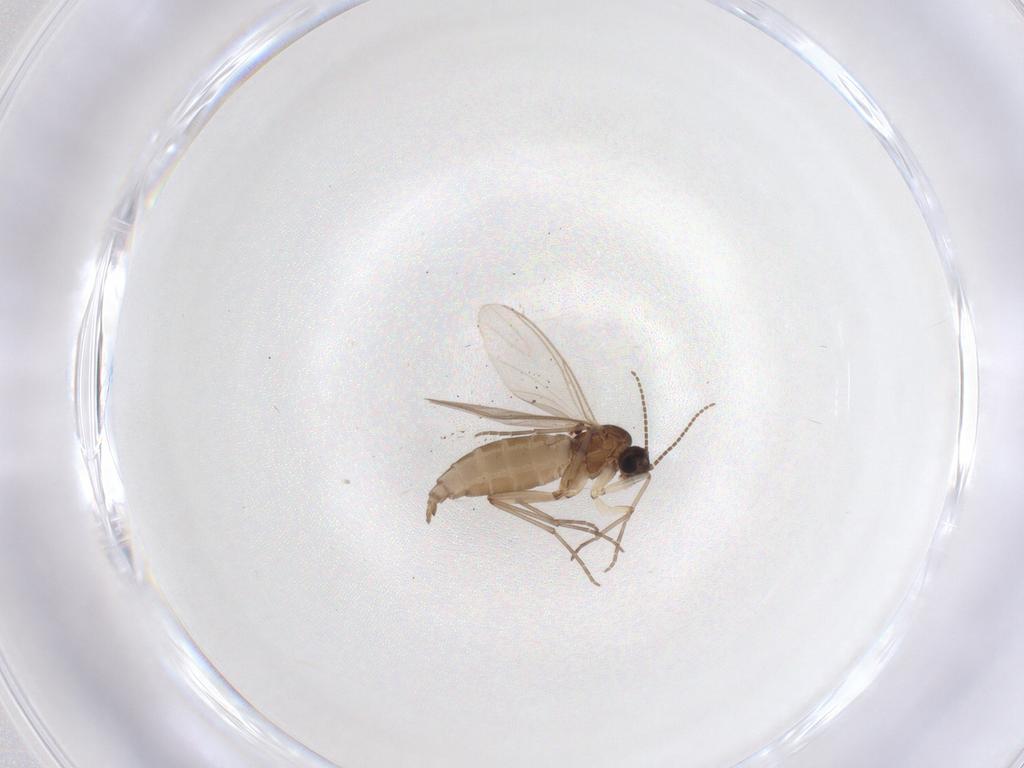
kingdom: Animalia
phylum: Arthropoda
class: Insecta
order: Diptera
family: Sciaridae
